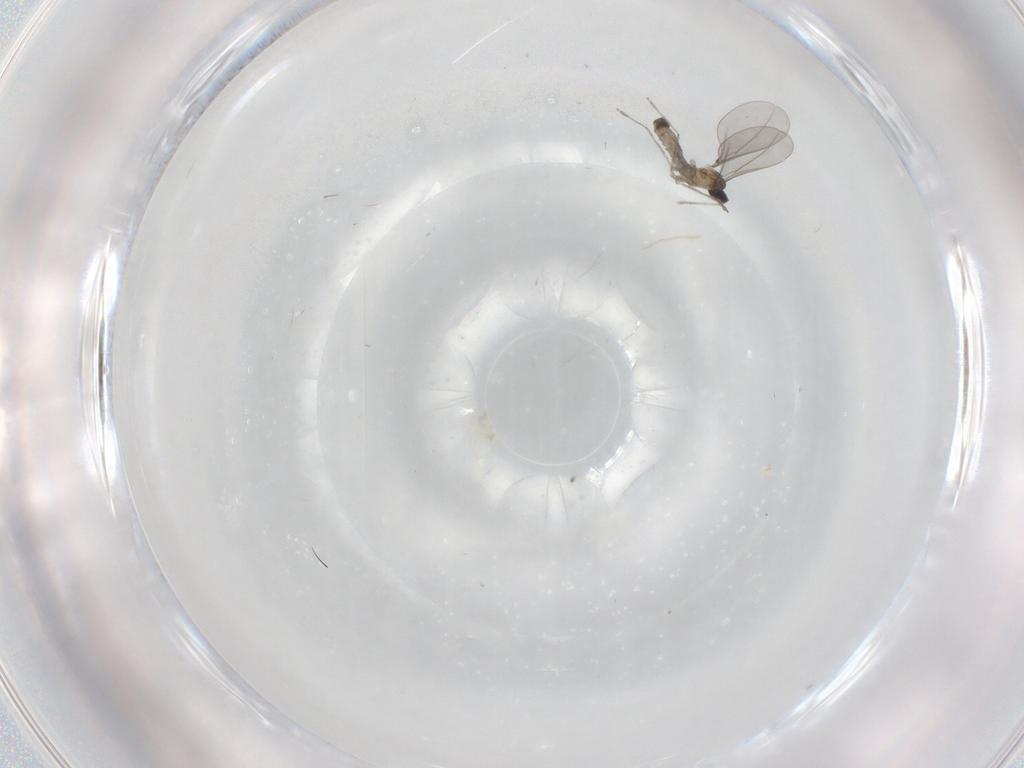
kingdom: Animalia
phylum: Arthropoda
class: Insecta
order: Diptera
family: Cecidomyiidae
